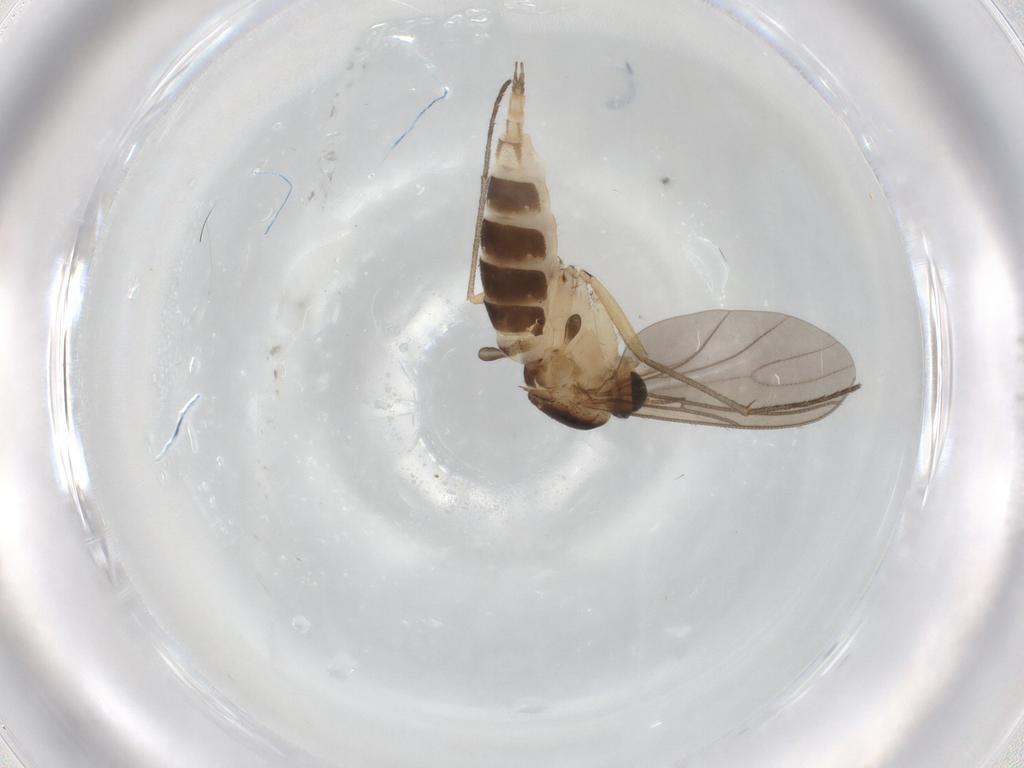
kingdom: Animalia
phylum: Arthropoda
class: Insecta
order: Diptera
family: Sciaridae
